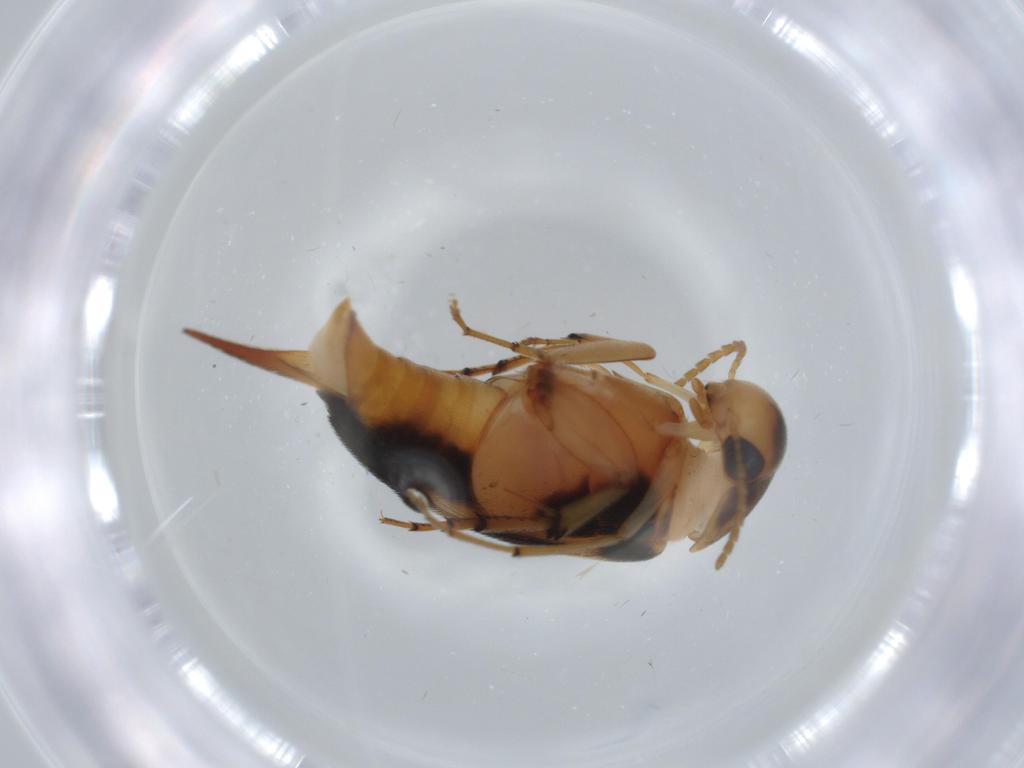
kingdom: Animalia
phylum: Arthropoda
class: Insecta
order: Coleoptera
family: Mordellidae
